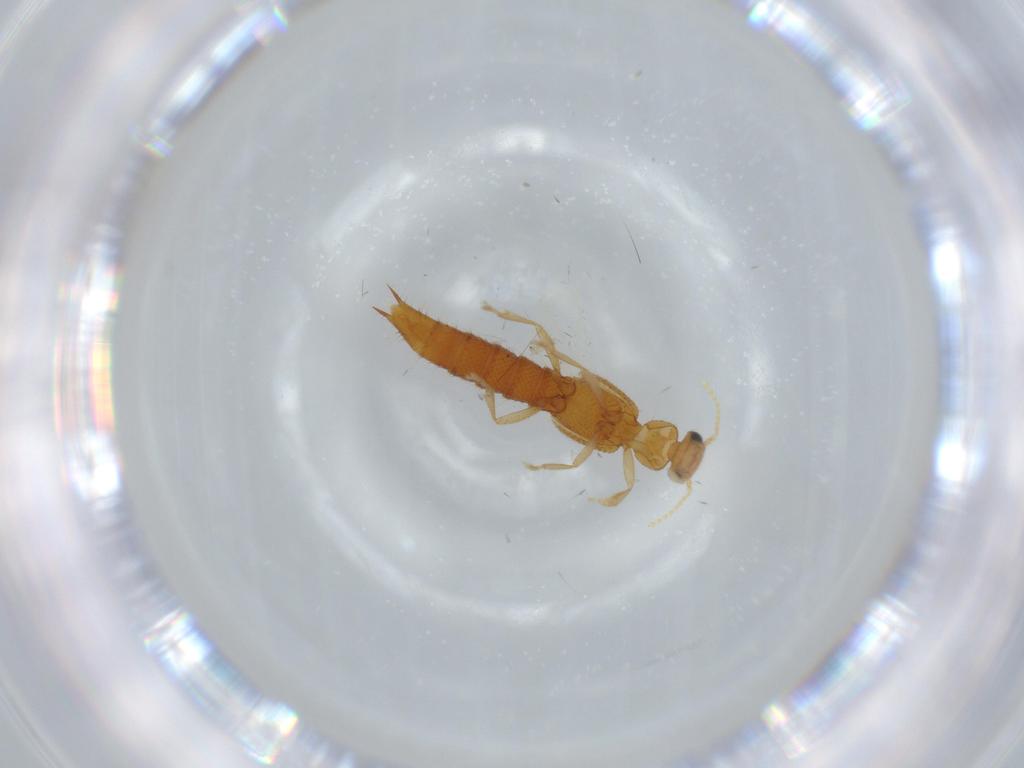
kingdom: Animalia
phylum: Arthropoda
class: Insecta
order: Coleoptera
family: Staphylinidae
